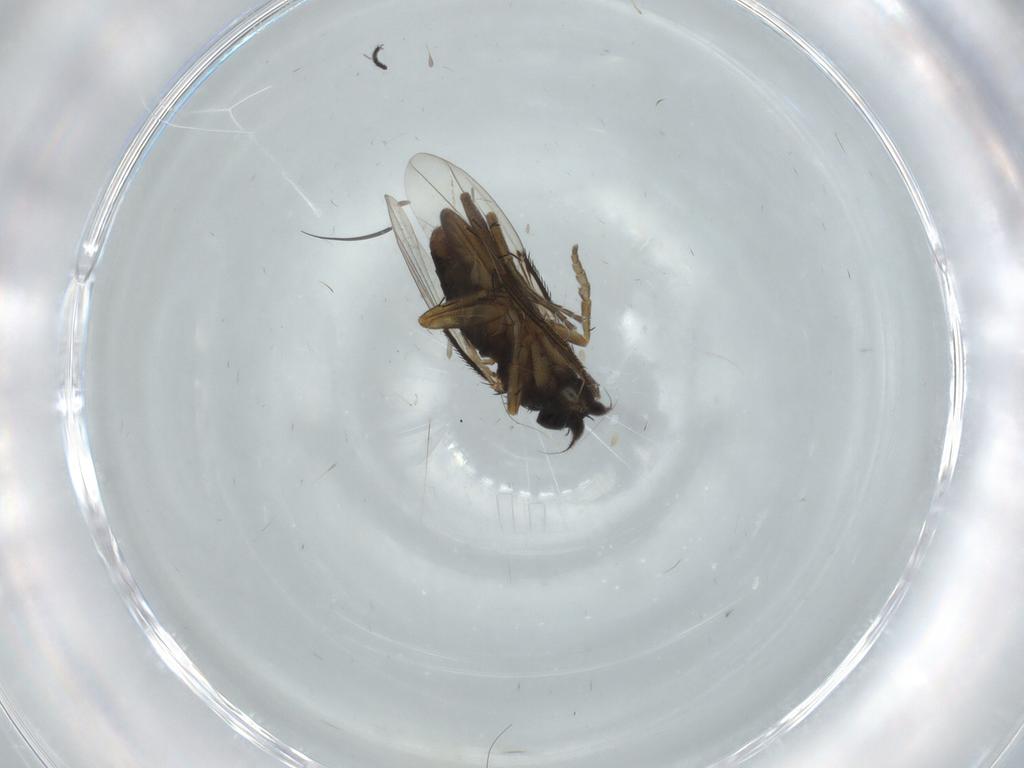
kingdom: Animalia
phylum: Arthropoda
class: Insecta
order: Diptera
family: Phoridae
